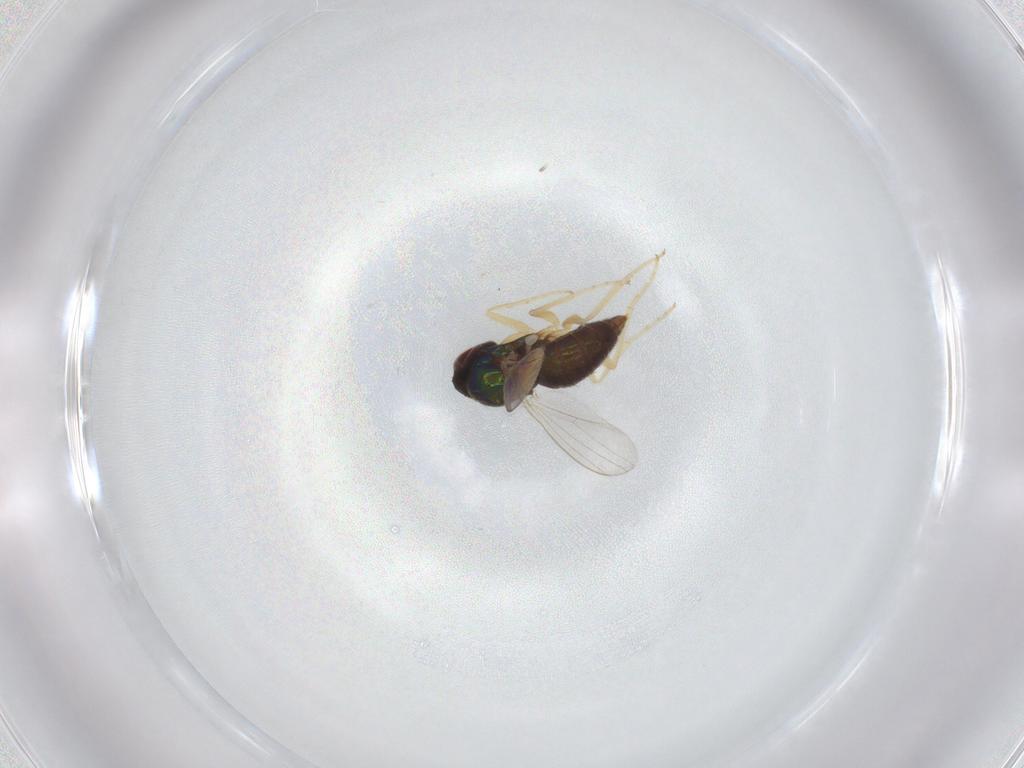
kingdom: Animalia
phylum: Arthropoda
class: Insecta
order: Diptera
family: Dolichopodidae
